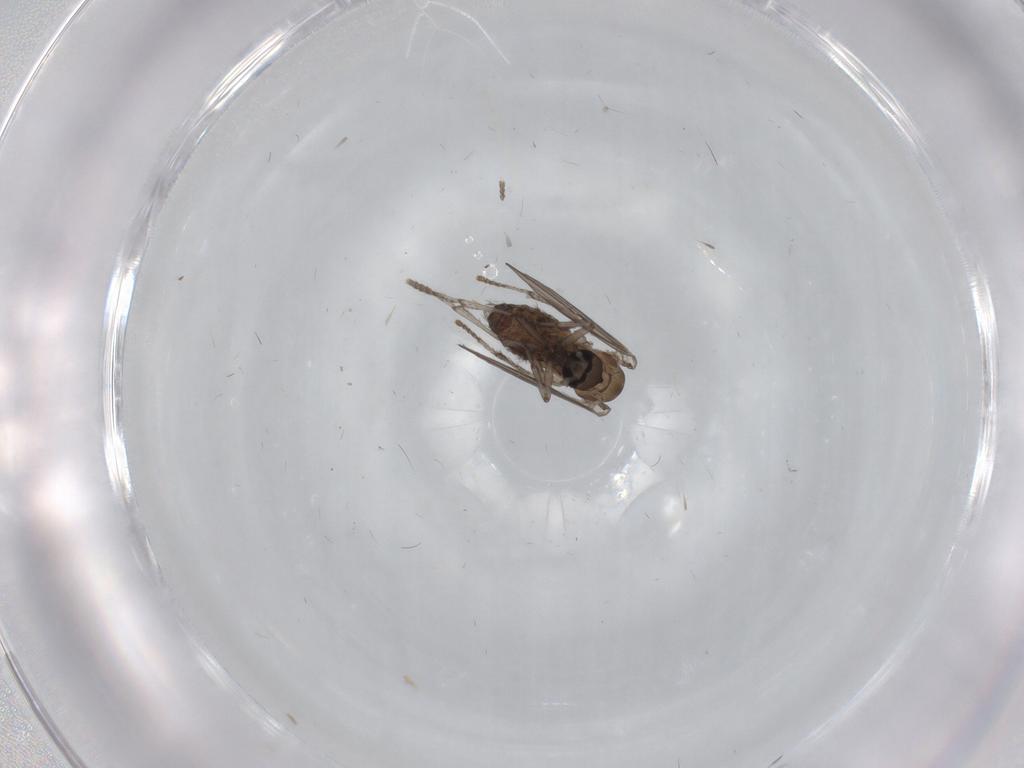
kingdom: Animalia
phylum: Arthropoda
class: Insecta
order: Diptera
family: Psychodidae
